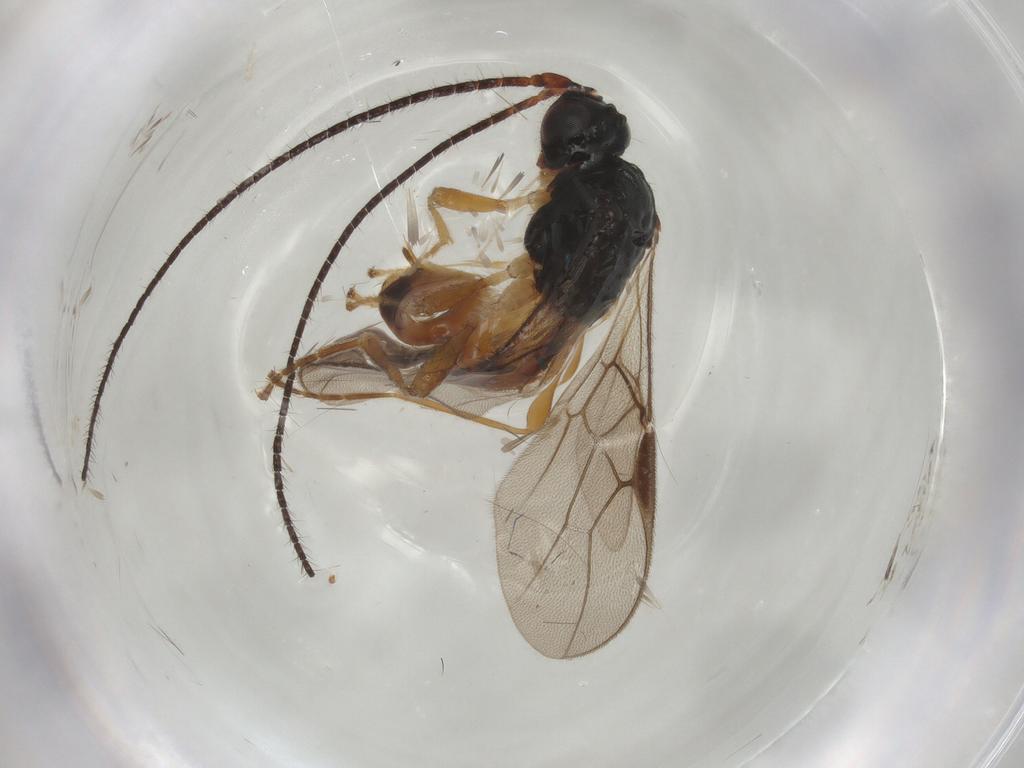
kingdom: Animalia
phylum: Arthropoda
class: Insecta
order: Hymenoptera
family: Braconidae
